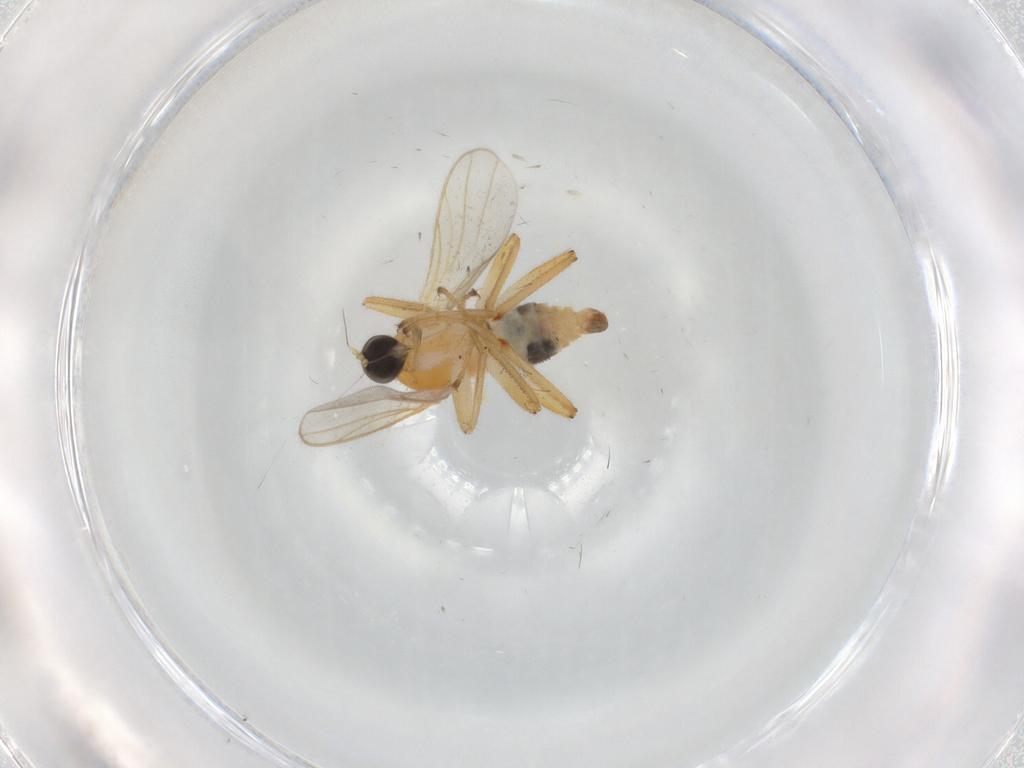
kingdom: Animalia
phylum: Arthropoda
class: Insecta
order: Diptera
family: Hybotidae
